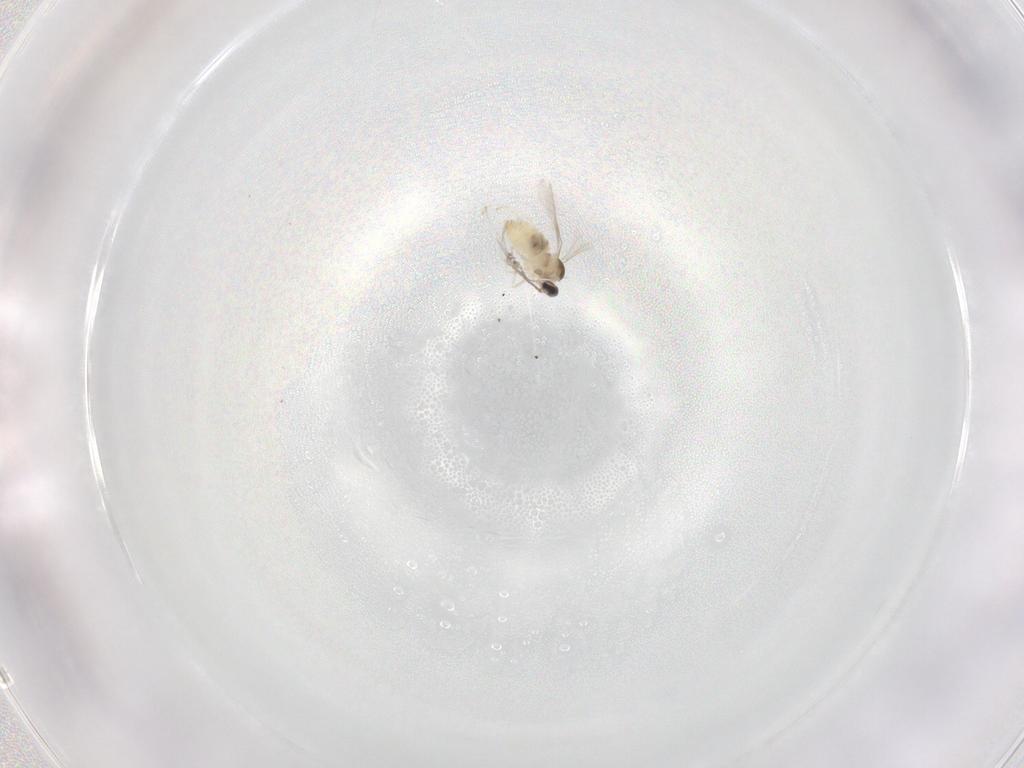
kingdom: Animalia
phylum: Arthropoda
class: Insecta
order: Diptera
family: Cecidomyiidae
